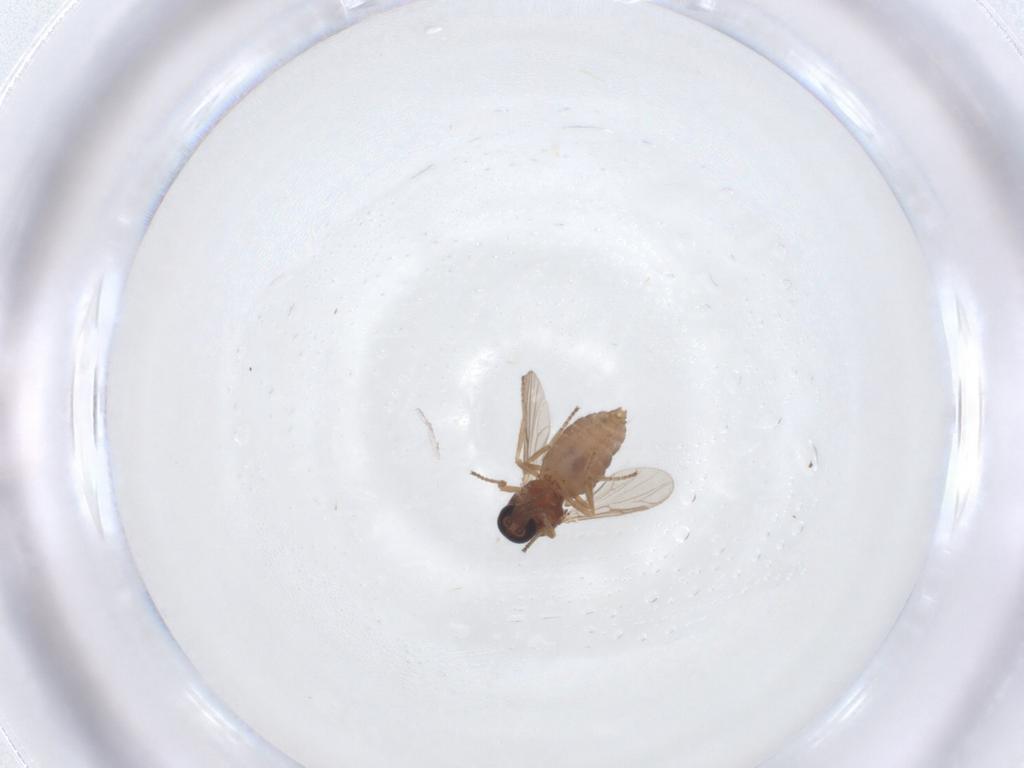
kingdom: Animalia
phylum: Arthropoda
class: Insecta
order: Diptera
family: Ceratopogonidae
